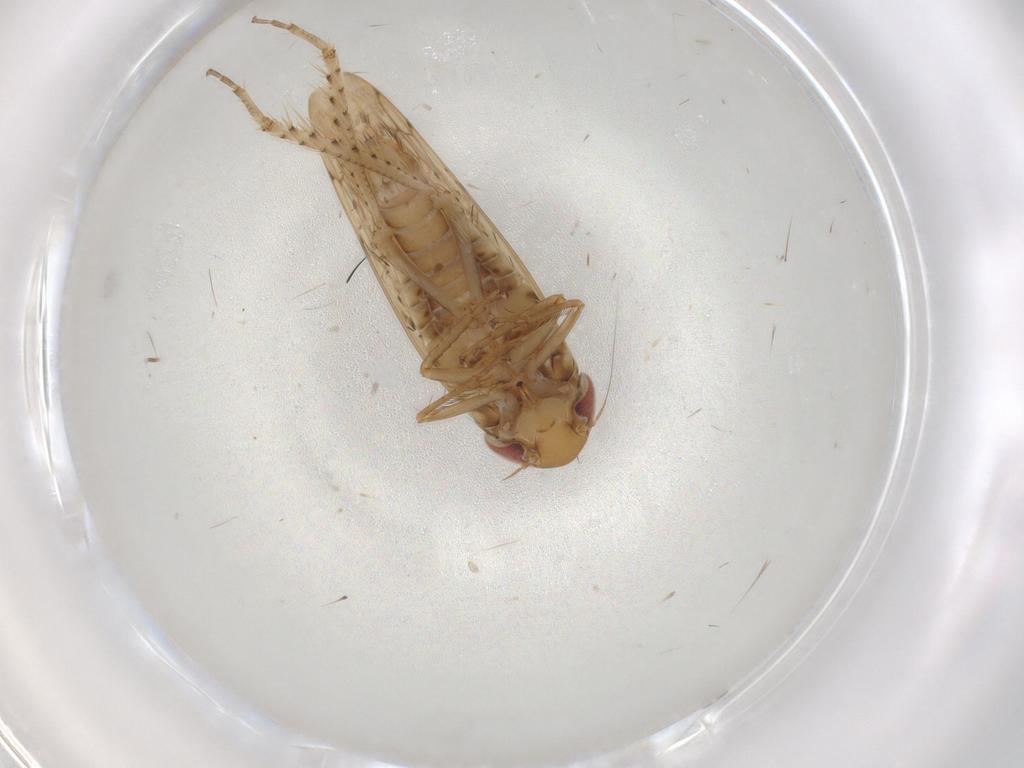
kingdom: Animalia
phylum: Arthropoda
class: Insecta
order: Hemiptera
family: Cicadellidae
